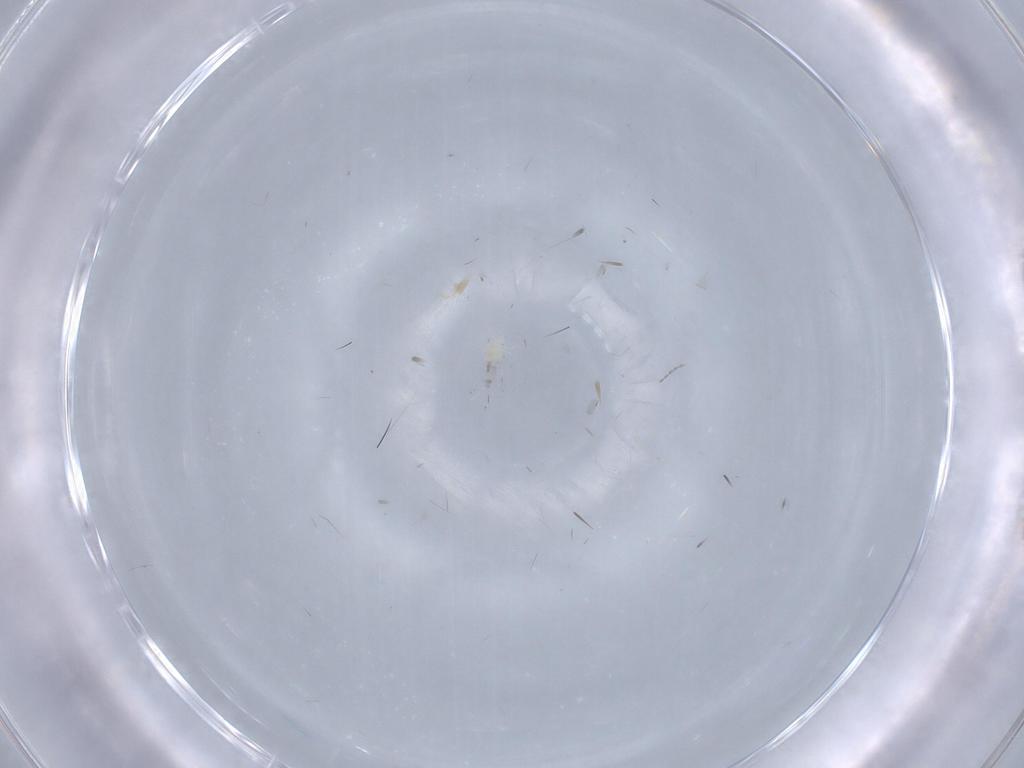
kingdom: Animalia
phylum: Arthropoda
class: Arachnida
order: Trombidiformes
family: Cunaxidae
